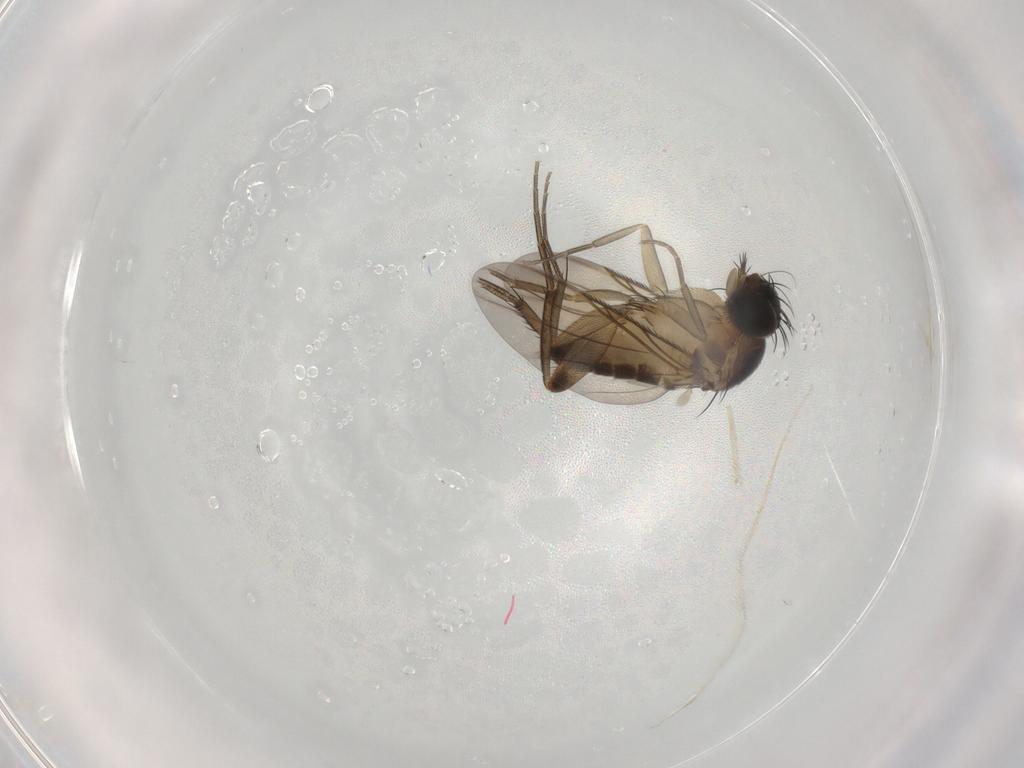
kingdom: Animalia
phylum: Arthropoda
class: Insecta
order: Diptera
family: Phoridae
